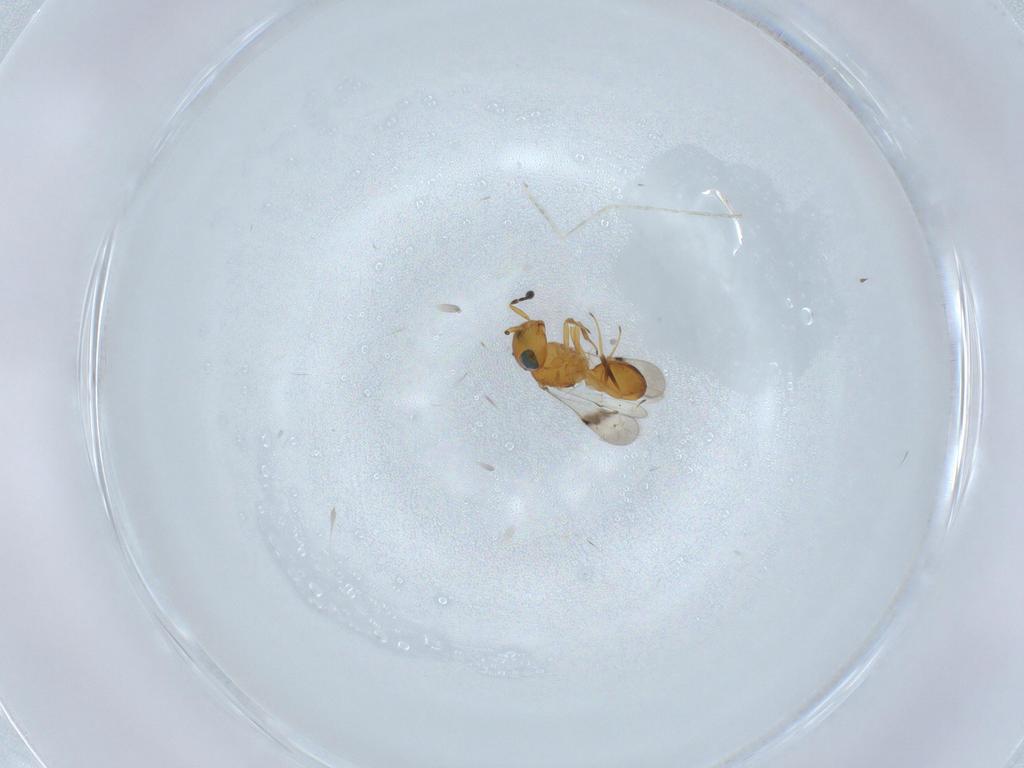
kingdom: Animalia
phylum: Arthropoda
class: Insecta
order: Hymenoptera
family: Scelionidae
